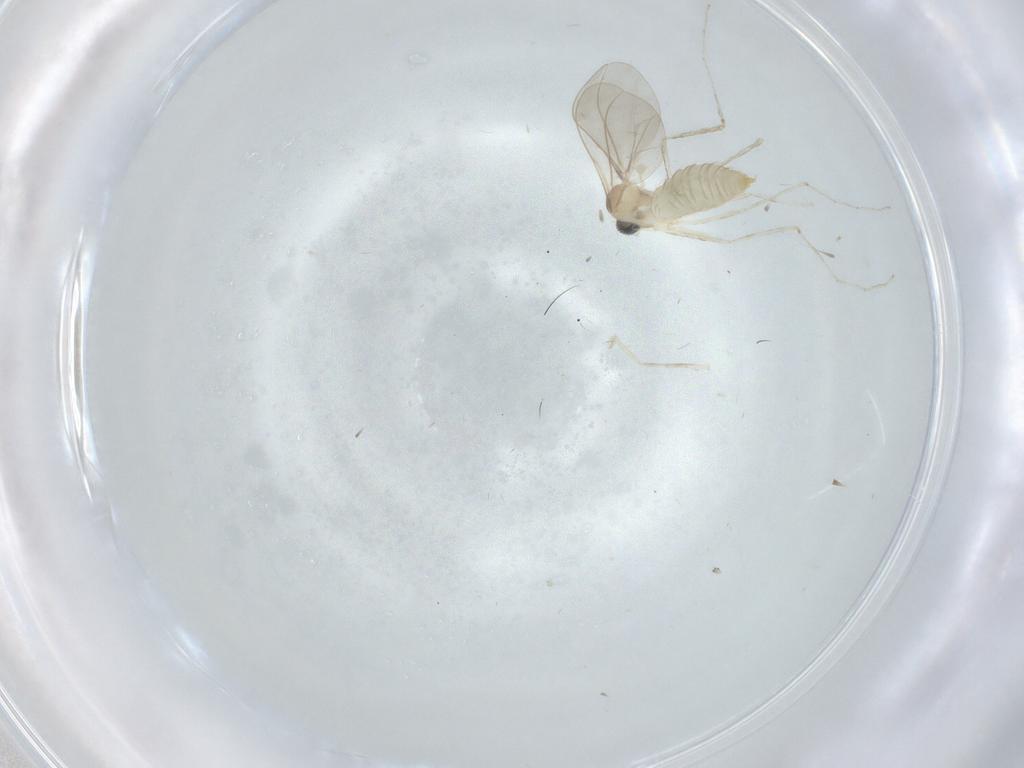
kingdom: Animalia
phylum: Arthropoda
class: Insecta
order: Diptera
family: Cecidomyiidae
